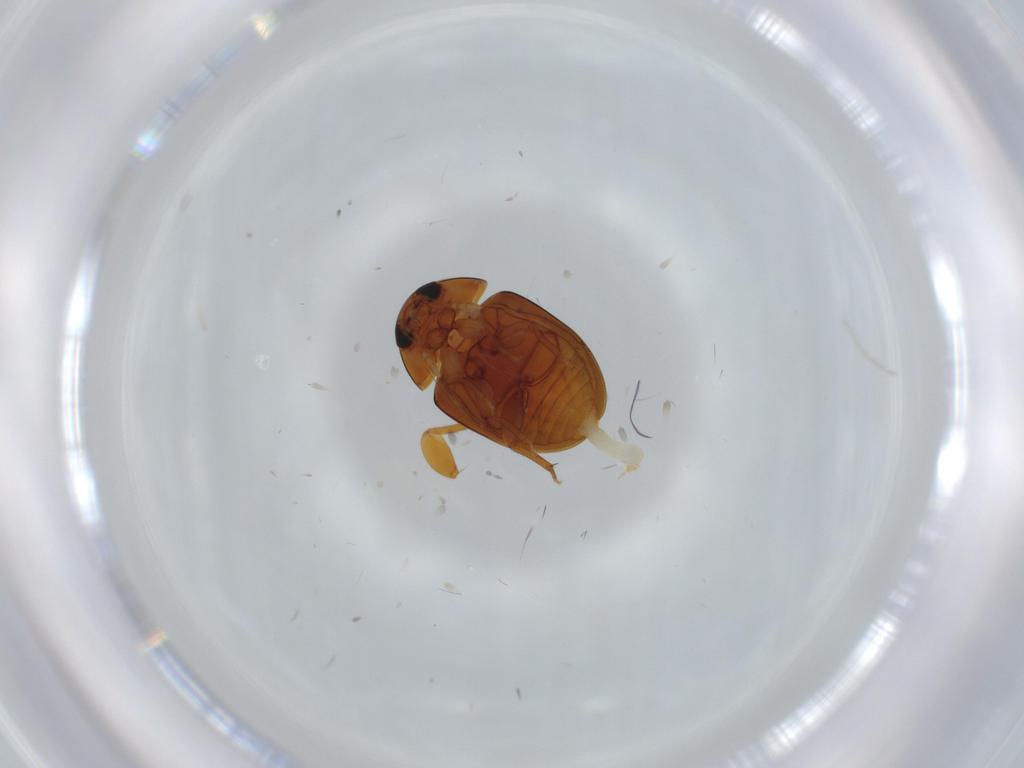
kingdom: Animalia
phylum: Arthropoda
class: Insecta
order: Coleoptera
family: Phalacridae
